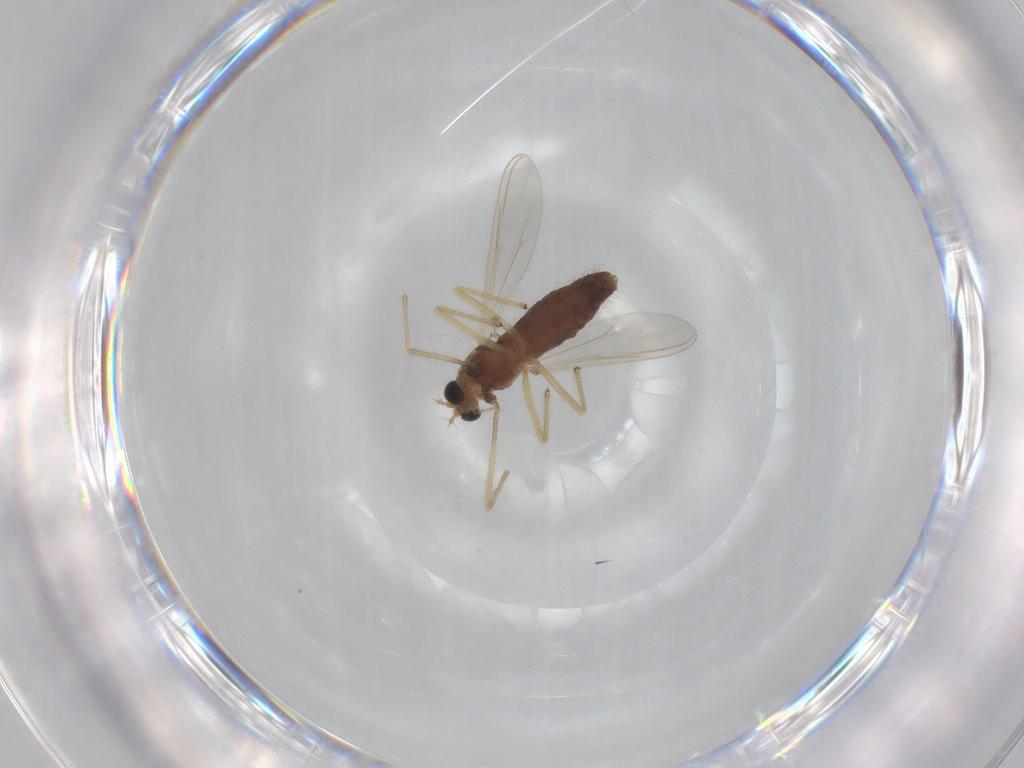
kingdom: Animalia
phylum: Arthropoda
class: Insecta
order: Diptera
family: Chironomidae
